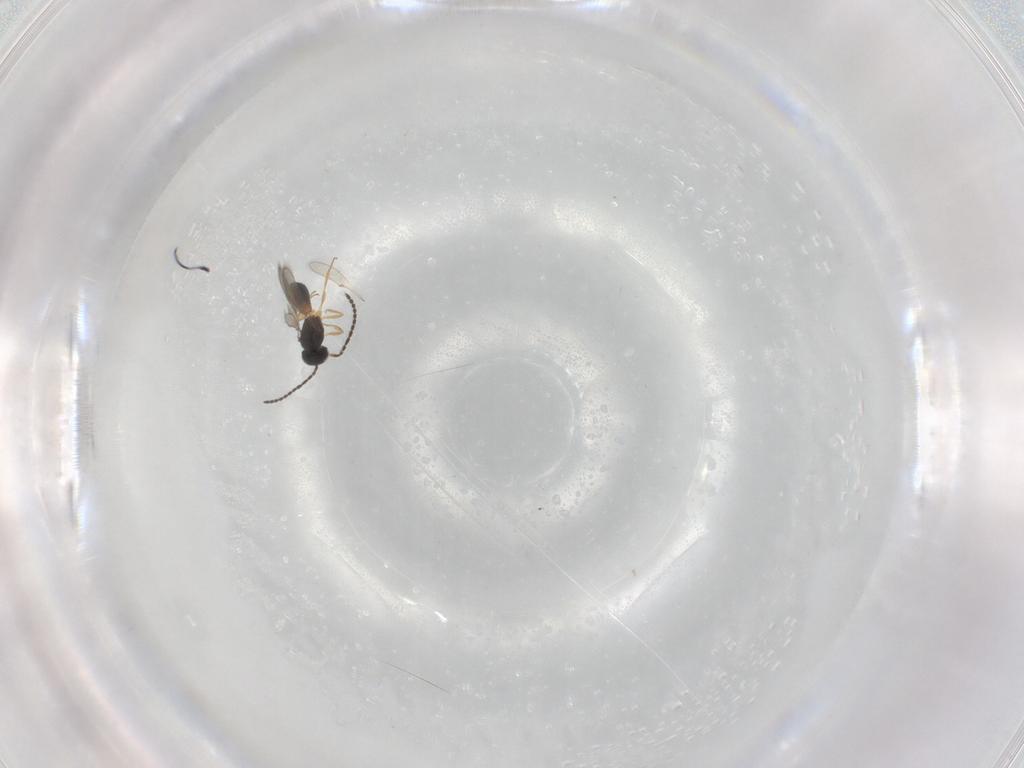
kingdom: Animalia
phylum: Arthropoda
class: Insecta
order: Hymenoptera
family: Scelionidae
